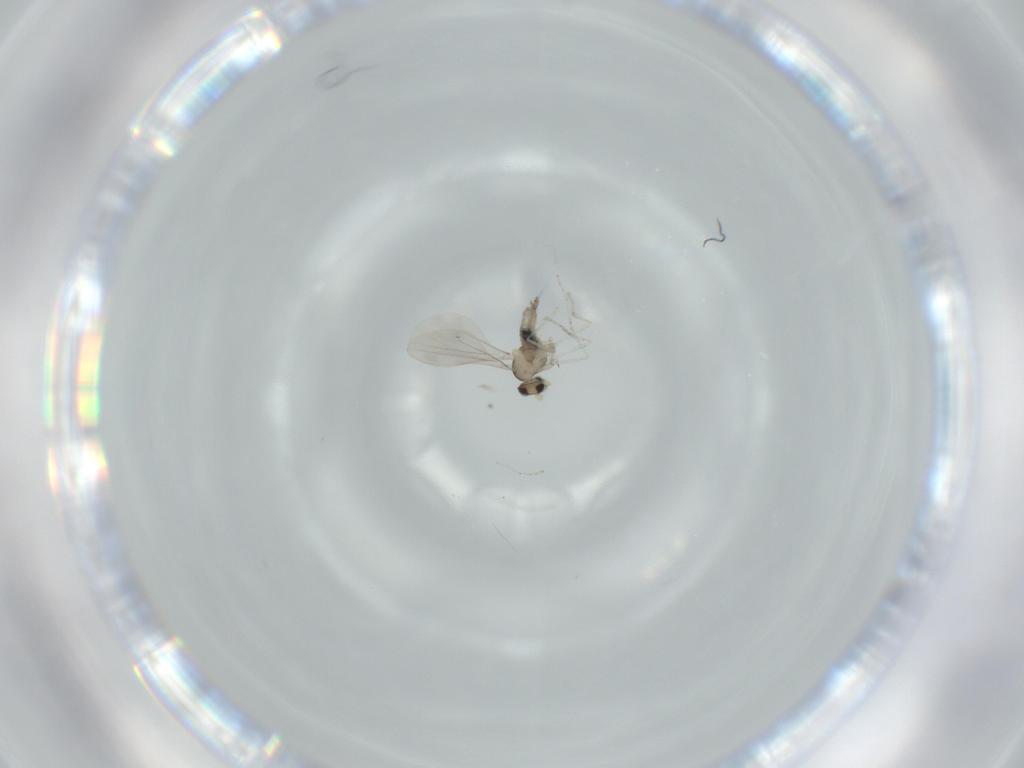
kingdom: Animalia
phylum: Arthropoda
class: Insecta
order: Diptera
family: Cecidomyiidae
